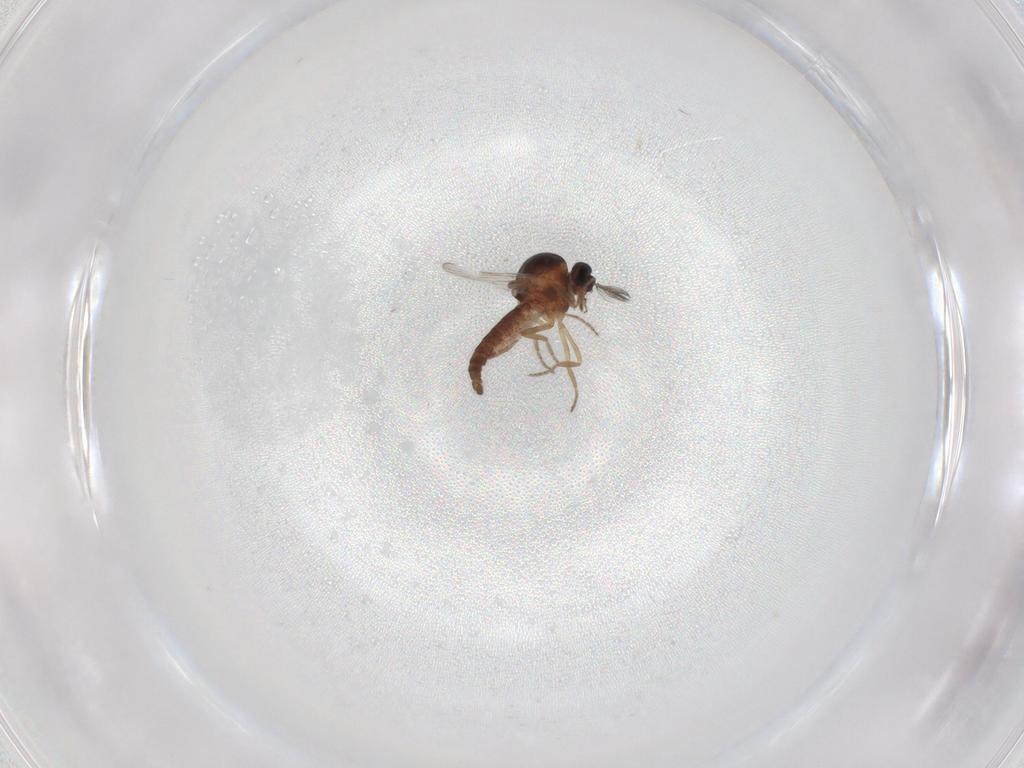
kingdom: Animalia
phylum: Arthropoda
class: Insecta
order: Diptera
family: Ceratopogonidae
